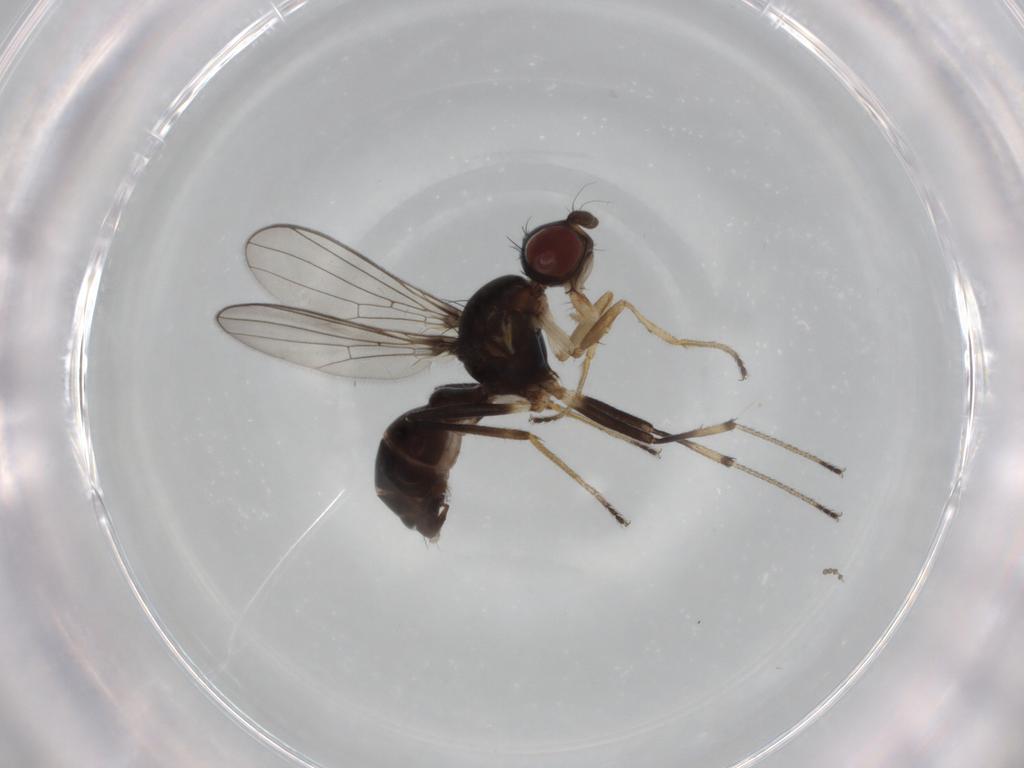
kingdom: Animalia
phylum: Arthropoda
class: Insecta
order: Diptera
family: Sepsidae
